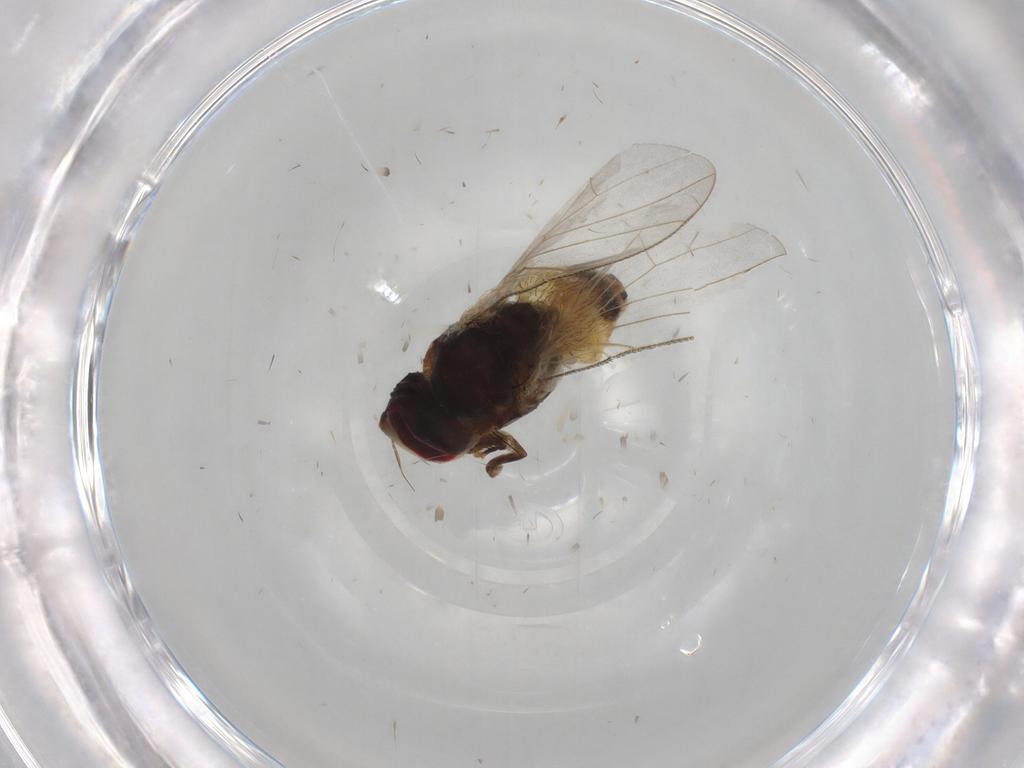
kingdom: Animalia
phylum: Arthropoda
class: Insecta
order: Diptera
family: Muscidae
